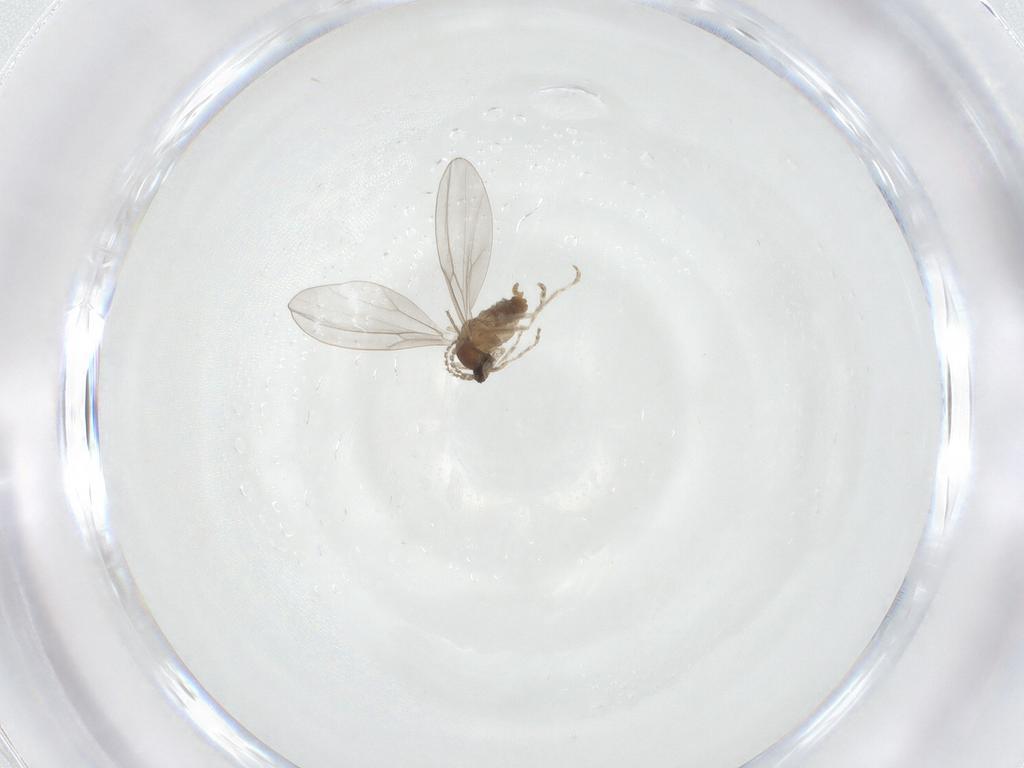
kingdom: Animalia
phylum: Arthropoda
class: Insecta
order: Diptera
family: Cecidomyiidae
